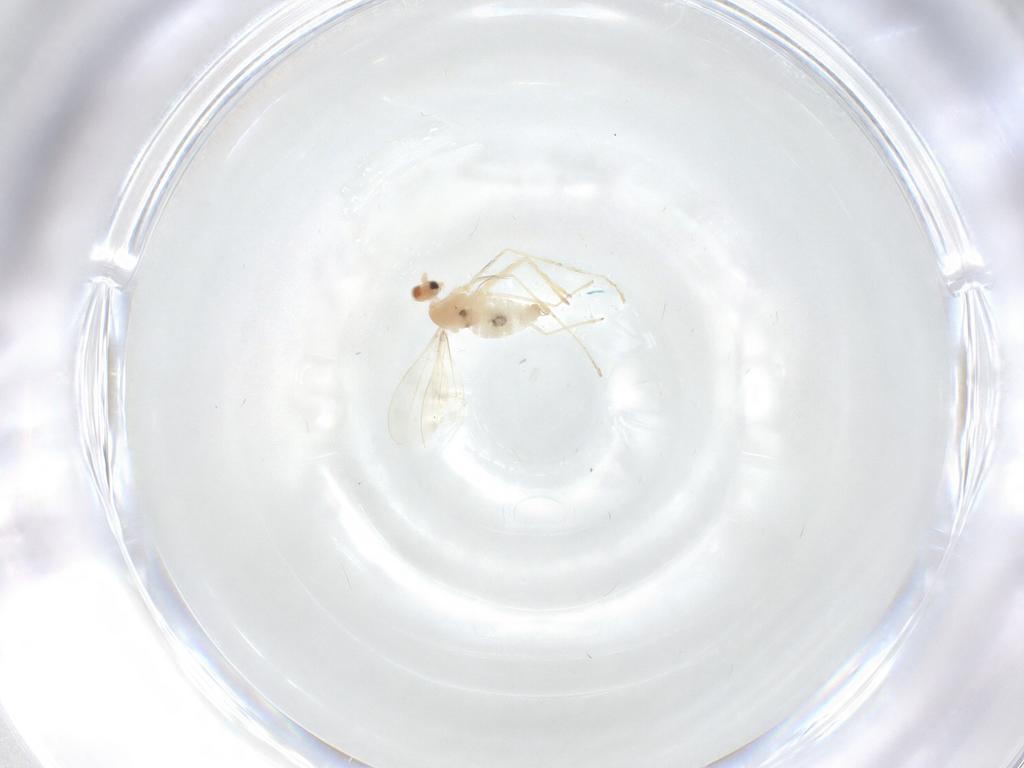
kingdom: Animalia
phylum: Arthropoda
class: Insecta
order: Diptera
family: Cecidomyiidae
